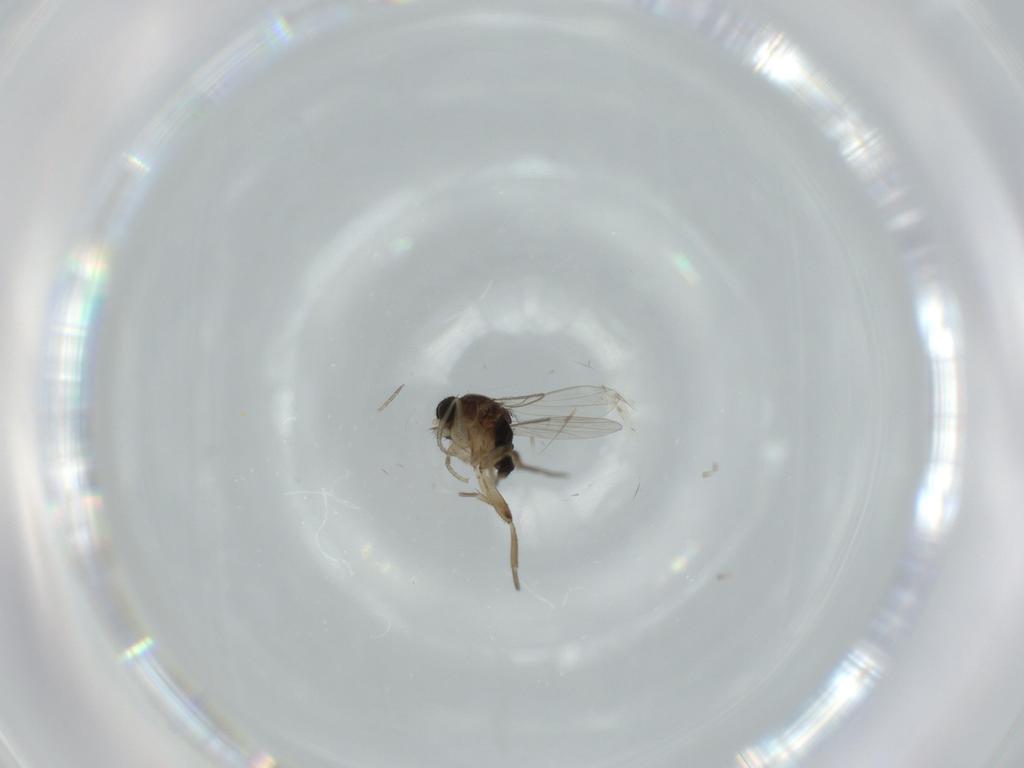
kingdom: Animalia
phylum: Arthropoda
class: Insecta
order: Diptera
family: Phoridae
